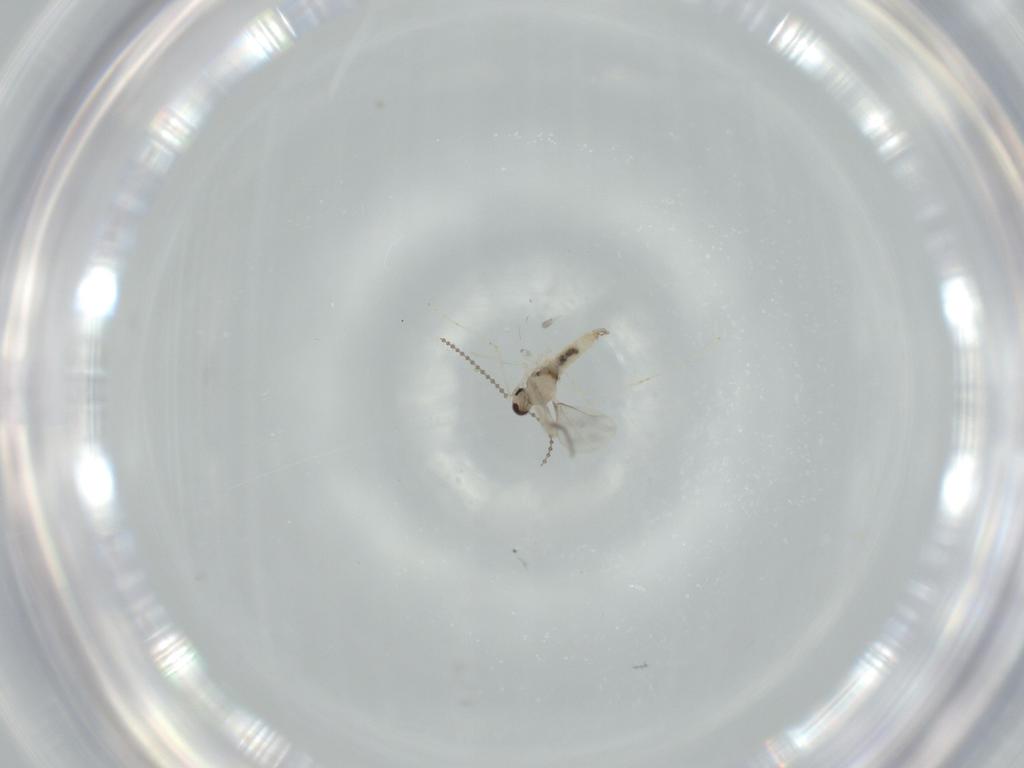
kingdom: Animalia
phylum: Arthropoda
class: Insecta
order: Diptera
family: Cecidomyiidae
